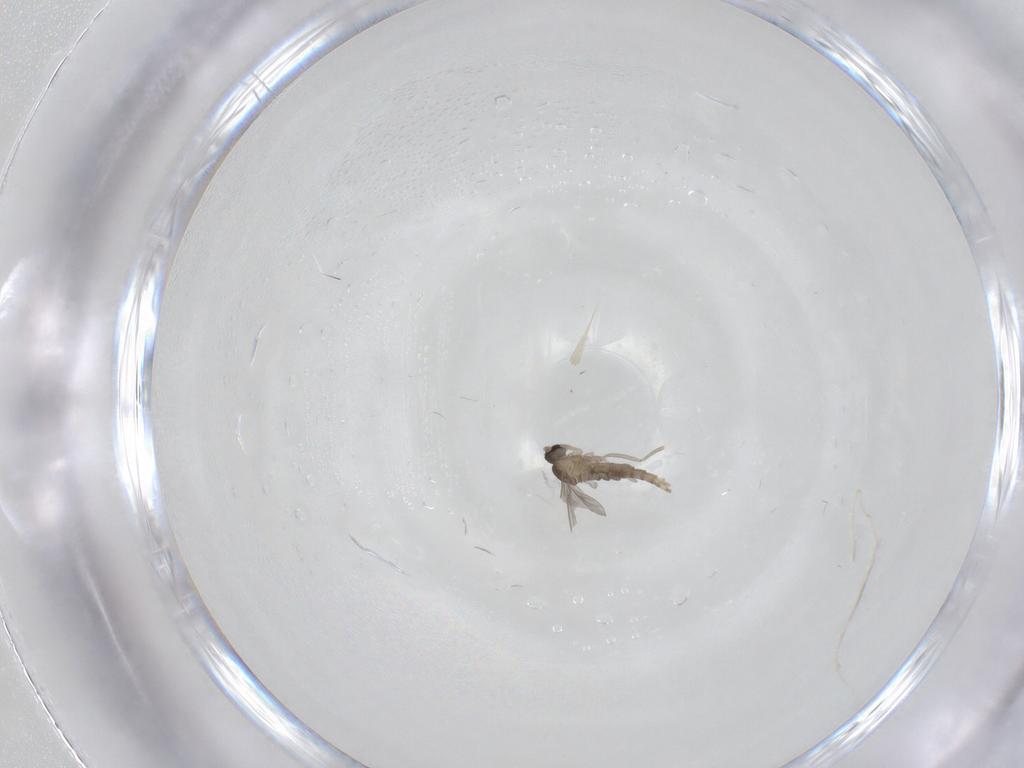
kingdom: Animalia
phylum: Arthropoda
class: Insecta
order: Diptera
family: Cecidomyiidae
